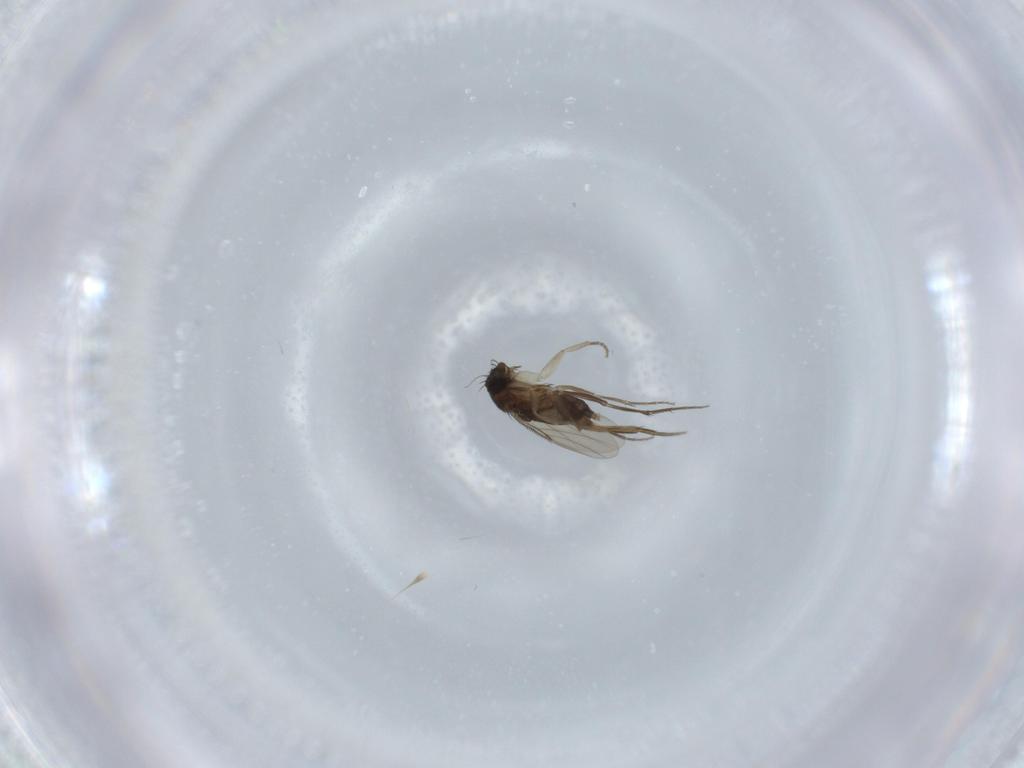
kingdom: Animalia
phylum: Arthropoda
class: Insecta
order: Diptera
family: Phoridae
